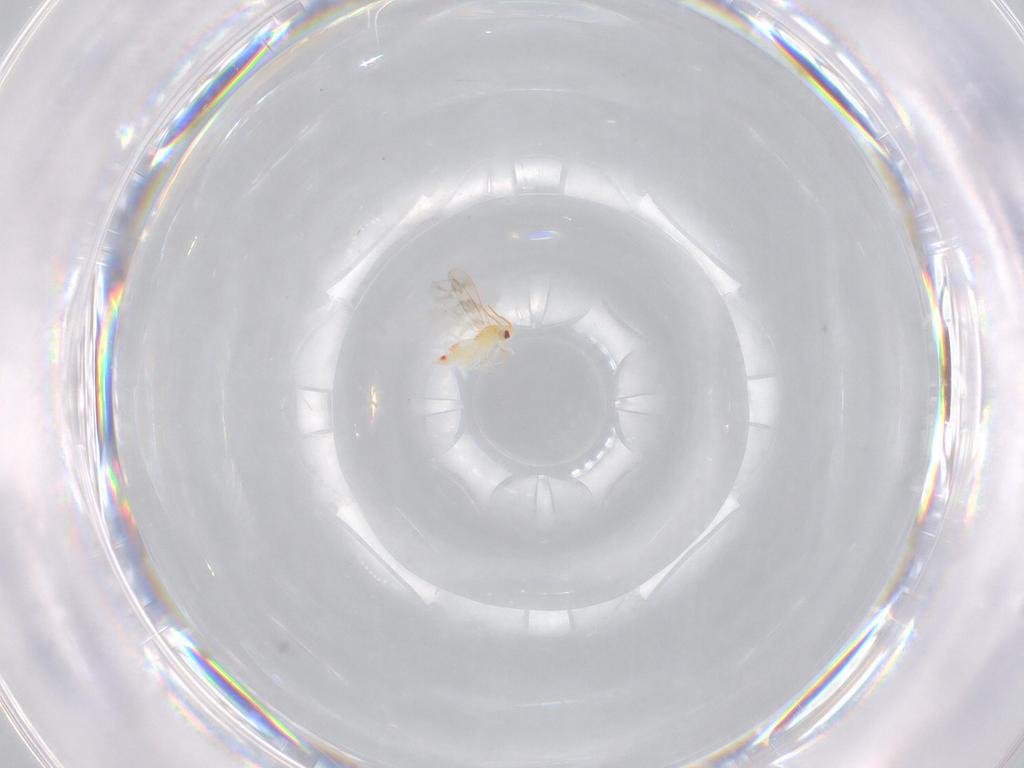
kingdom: Animalia
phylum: Arthropoda
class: Insecta
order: Hemiptera
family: Aleyrodidae
